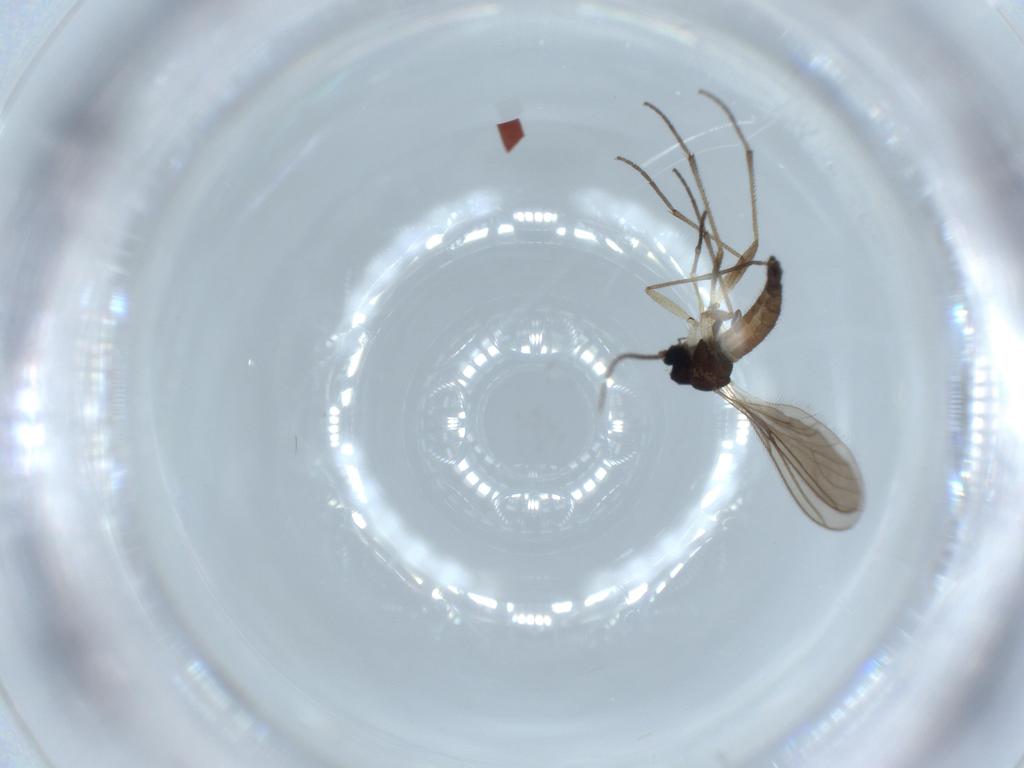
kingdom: Animalia
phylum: Arthropoda
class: Insecta
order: Diptera
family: Sciaridae
